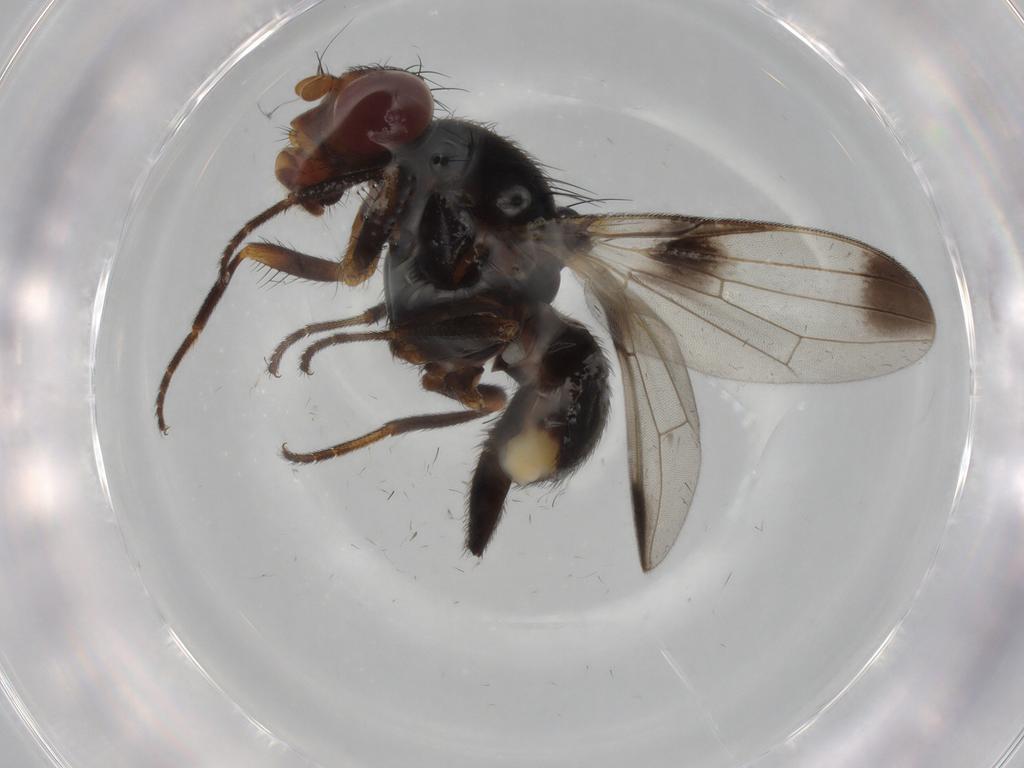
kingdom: Animalia
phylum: Arthropoda
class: Insecta
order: Diptera
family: Ulidiidae
